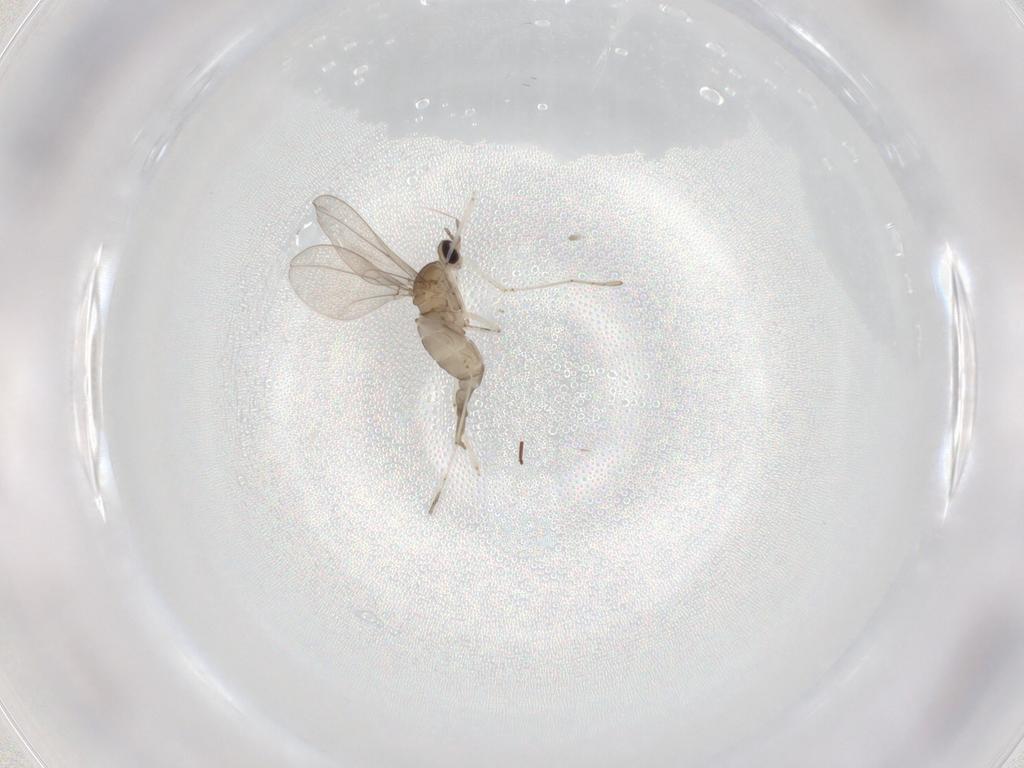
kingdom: Animalia
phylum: Arthropoda
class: Insecta
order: Diptera
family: Cecidomyiidae
